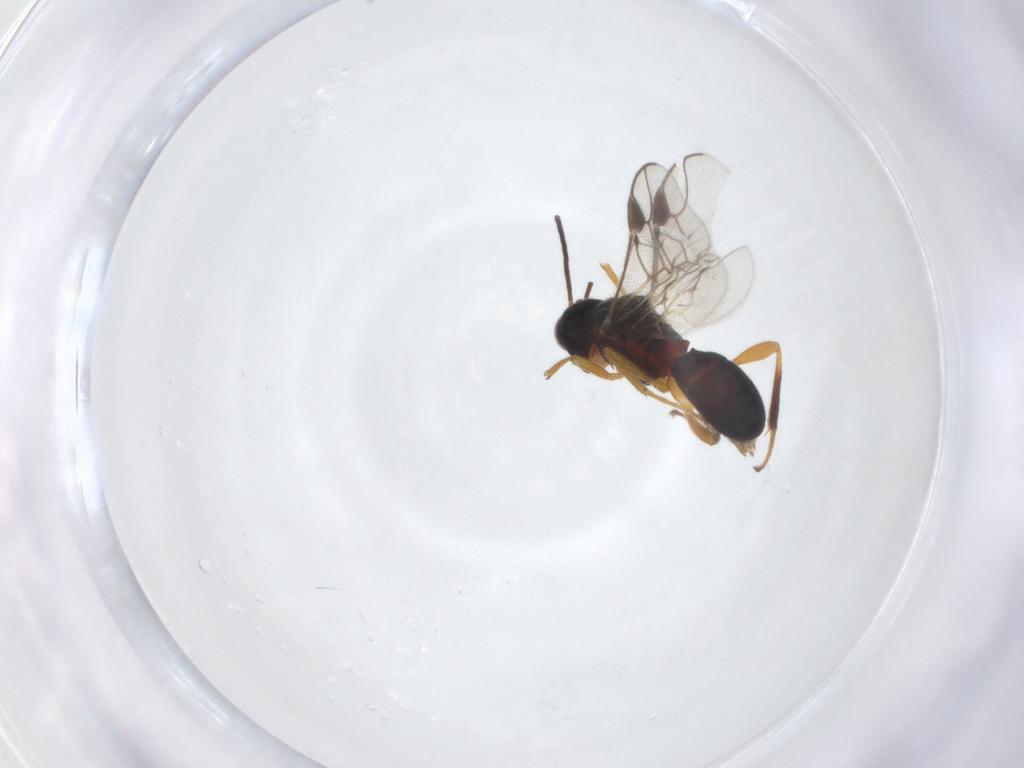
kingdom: Animalia
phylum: Arthropoda
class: Insecta
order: Hymenoptera
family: Braconidae
